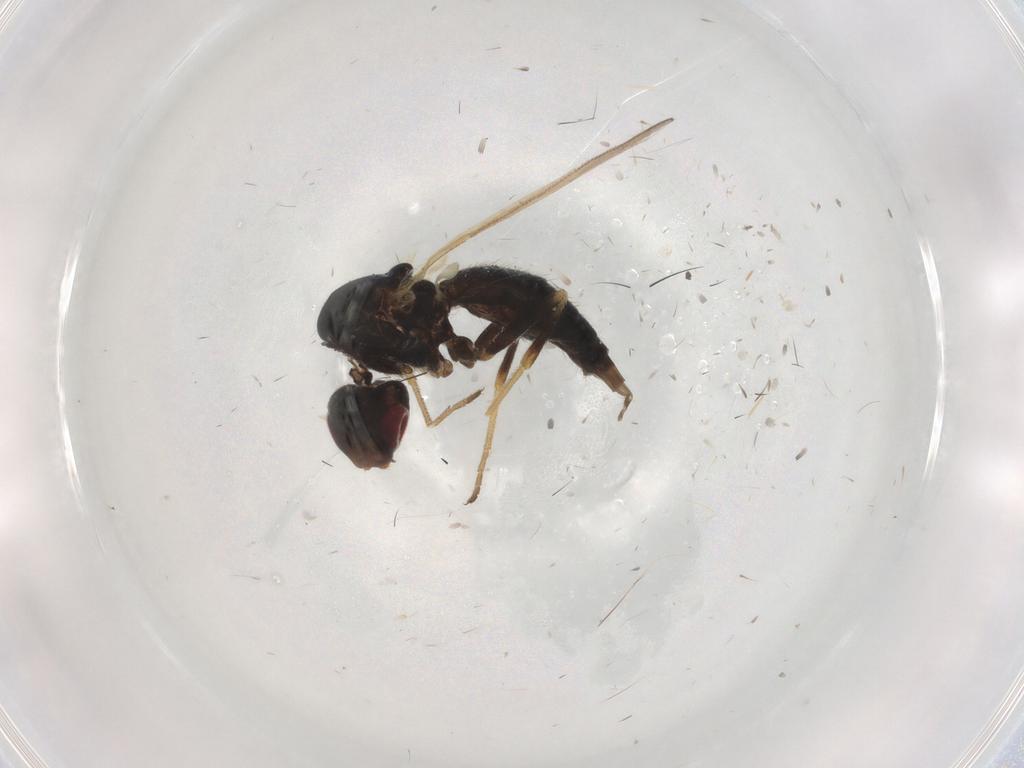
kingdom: Animalia
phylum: Arthropoda
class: Insecta
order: Diptera
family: Psilidae
